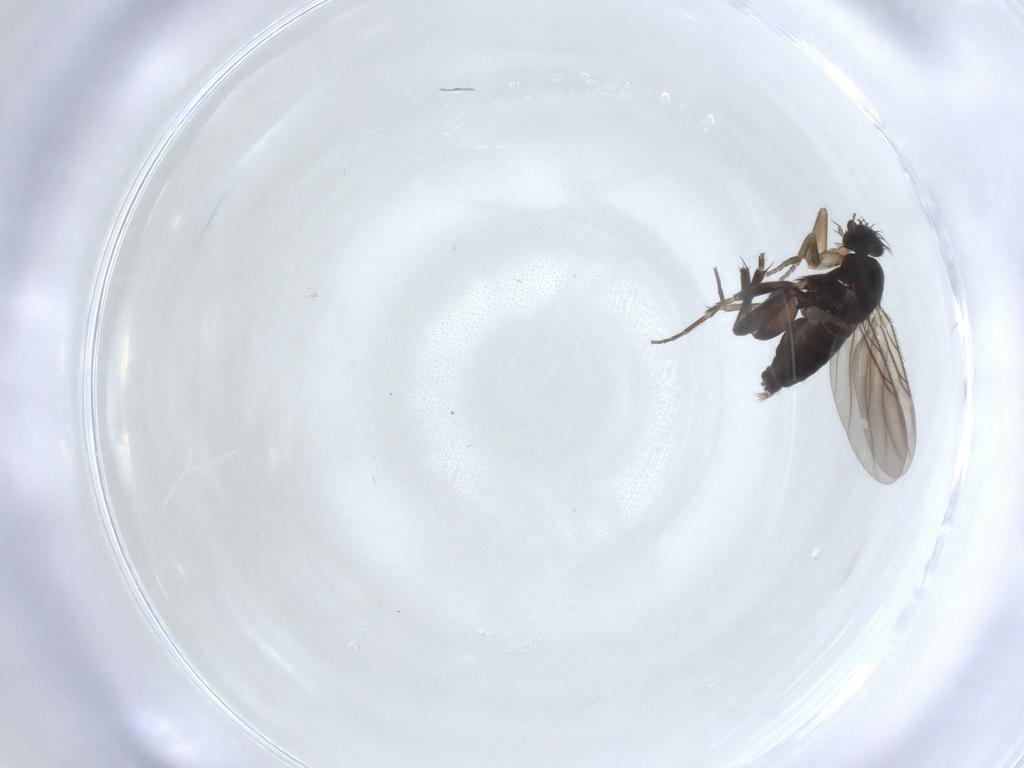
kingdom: Animalia
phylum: Arthropoda
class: Insecta
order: Diptera
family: Phoridae
